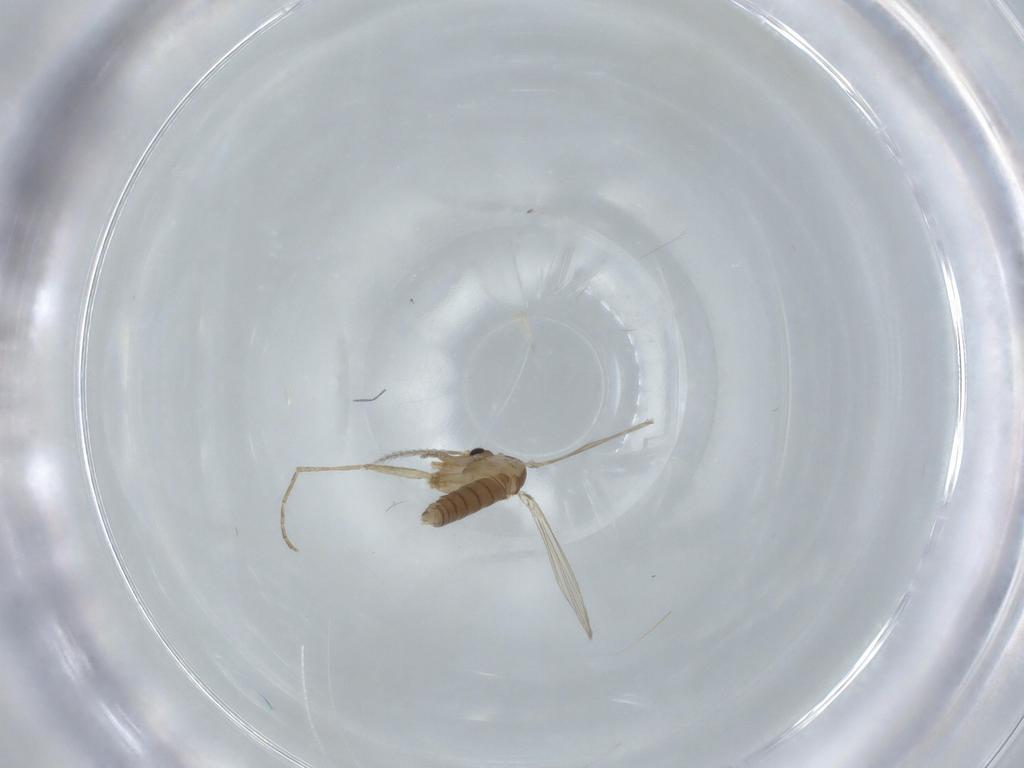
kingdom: Animalia
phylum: Arthropoda
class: Insecta
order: Diptera
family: Psychodidae
